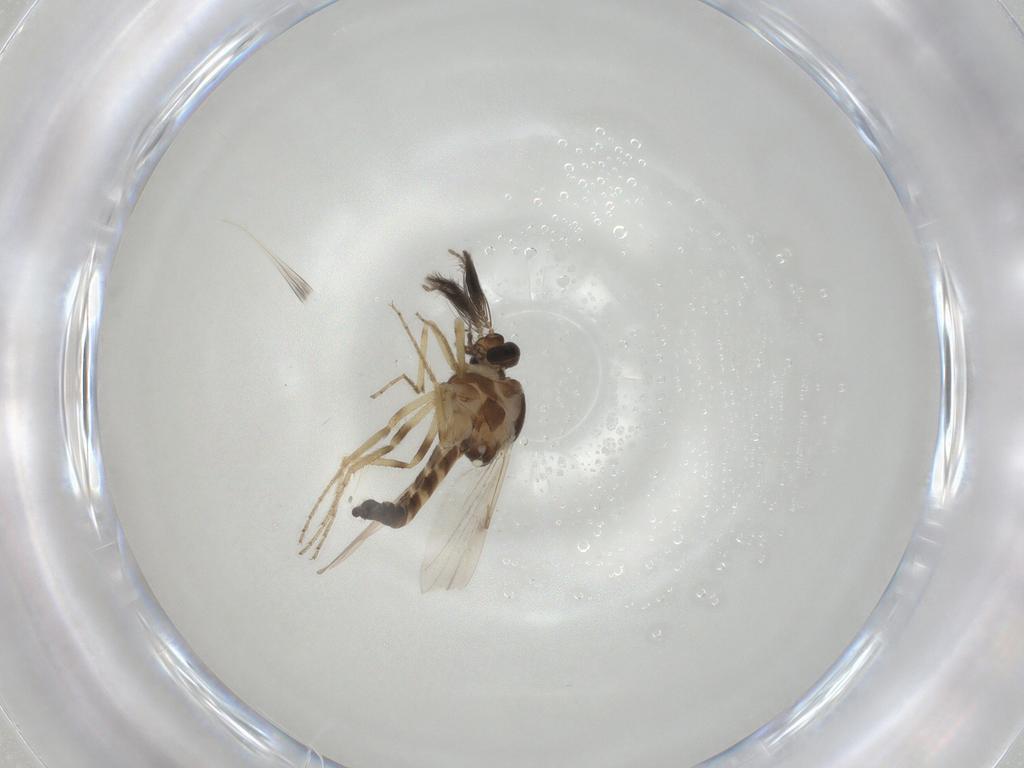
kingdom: Animalia
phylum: Arthropoda
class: Insecta
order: Diptera
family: Ceratopogonidae
